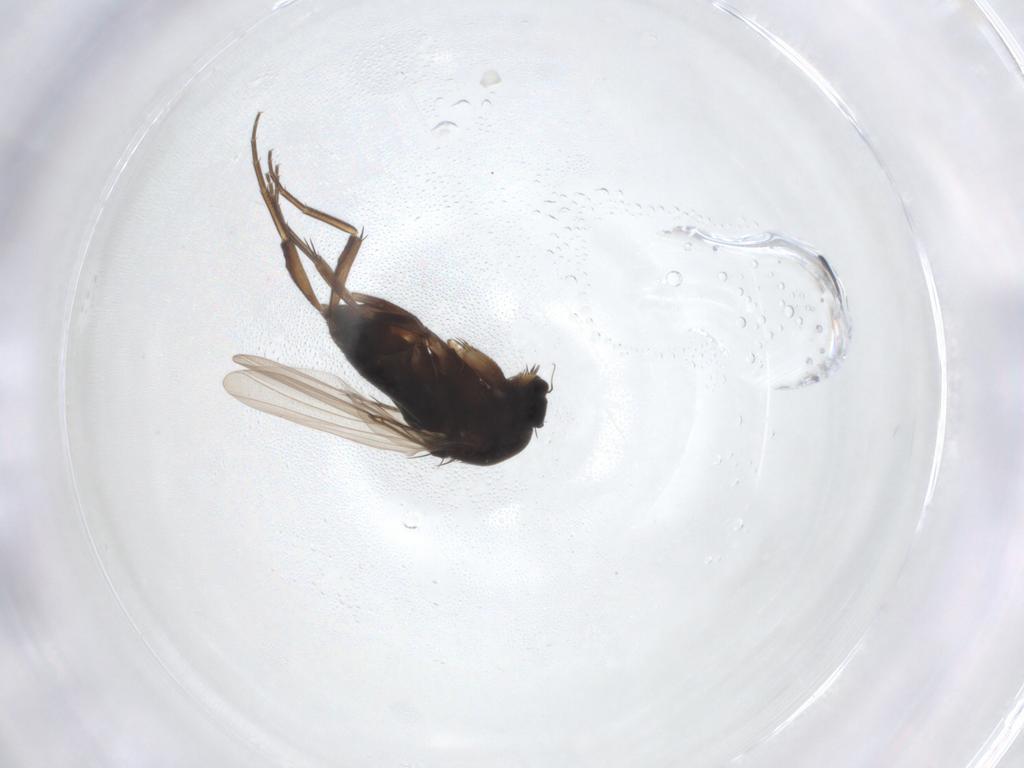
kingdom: Animalia
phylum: Arthropoda
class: Insecta
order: Diptera
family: Phoridae
